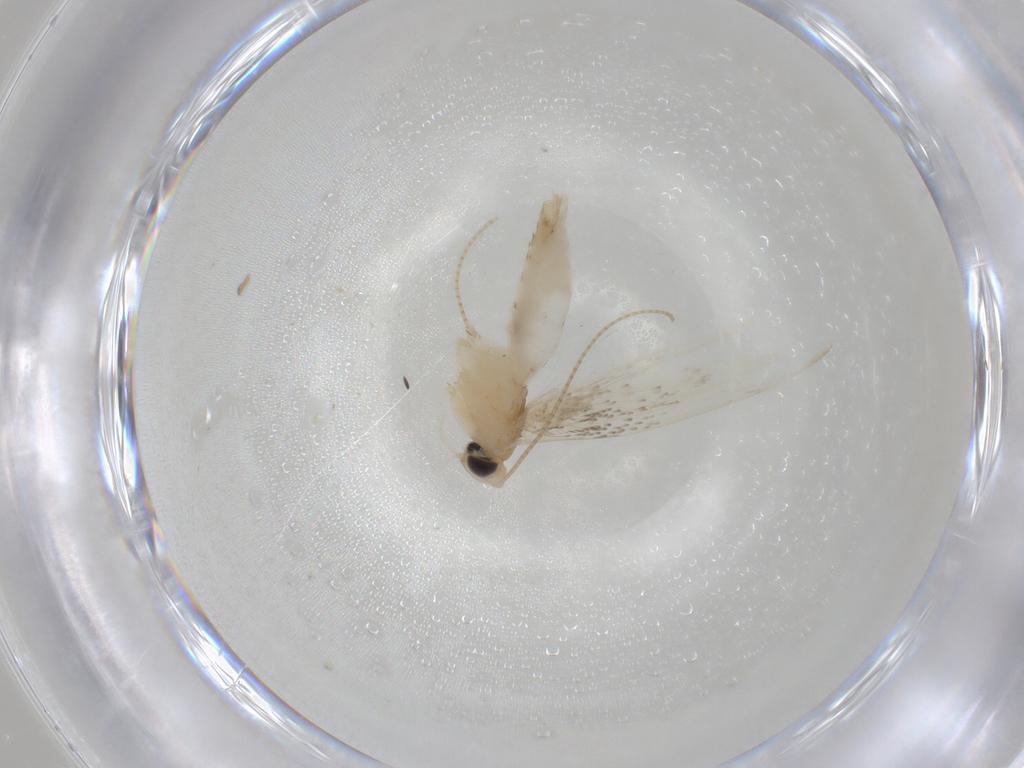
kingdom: Animalia
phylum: Arthropoda
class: Insecta
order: Lepidoptera
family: Gracillariidae
